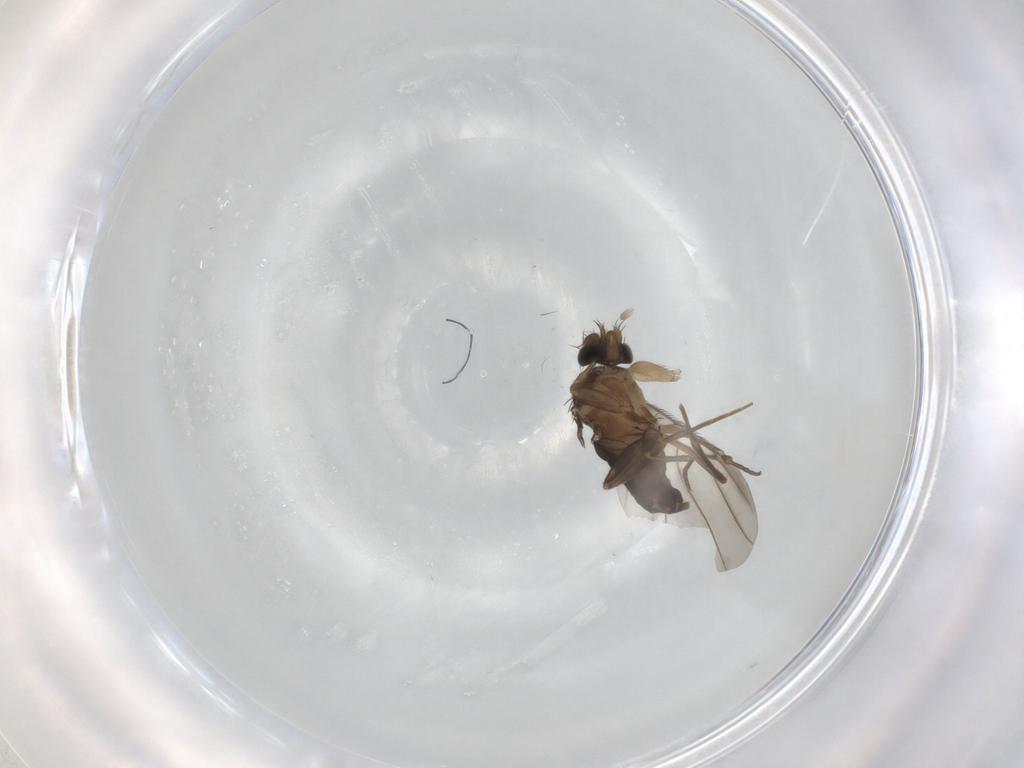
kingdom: Animalia
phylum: Arthropoda
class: Insecta
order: Diptera
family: Phoridae
